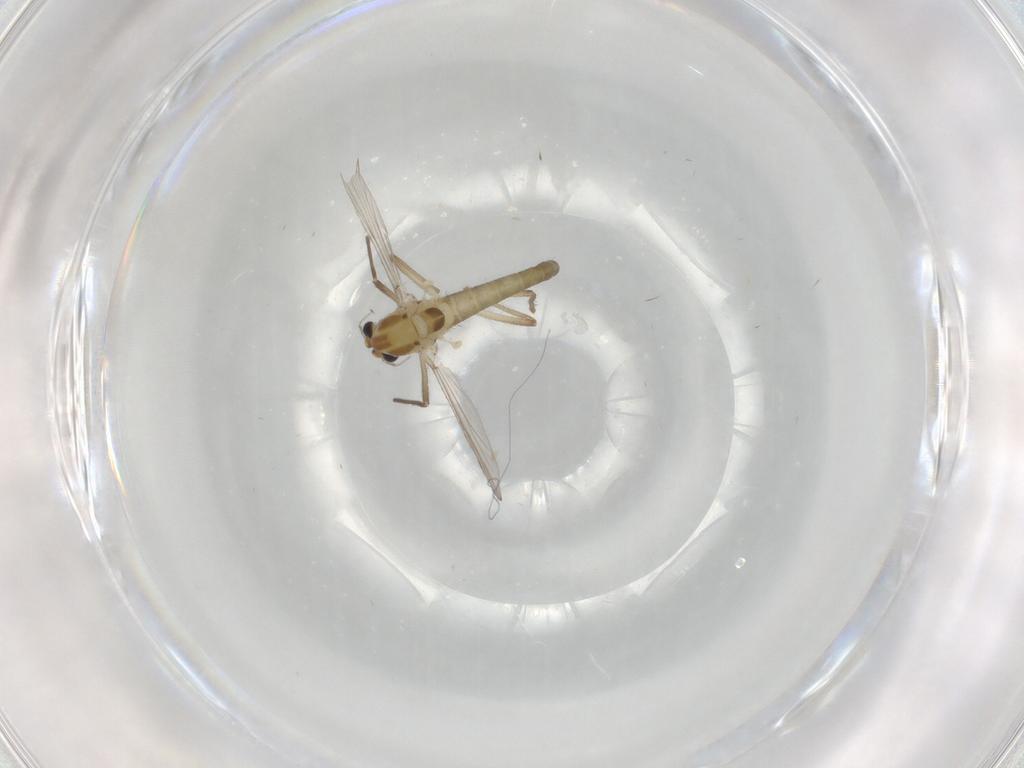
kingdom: Animalia
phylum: Arthropoda
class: Insecta
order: Diptera
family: Chironomidae
